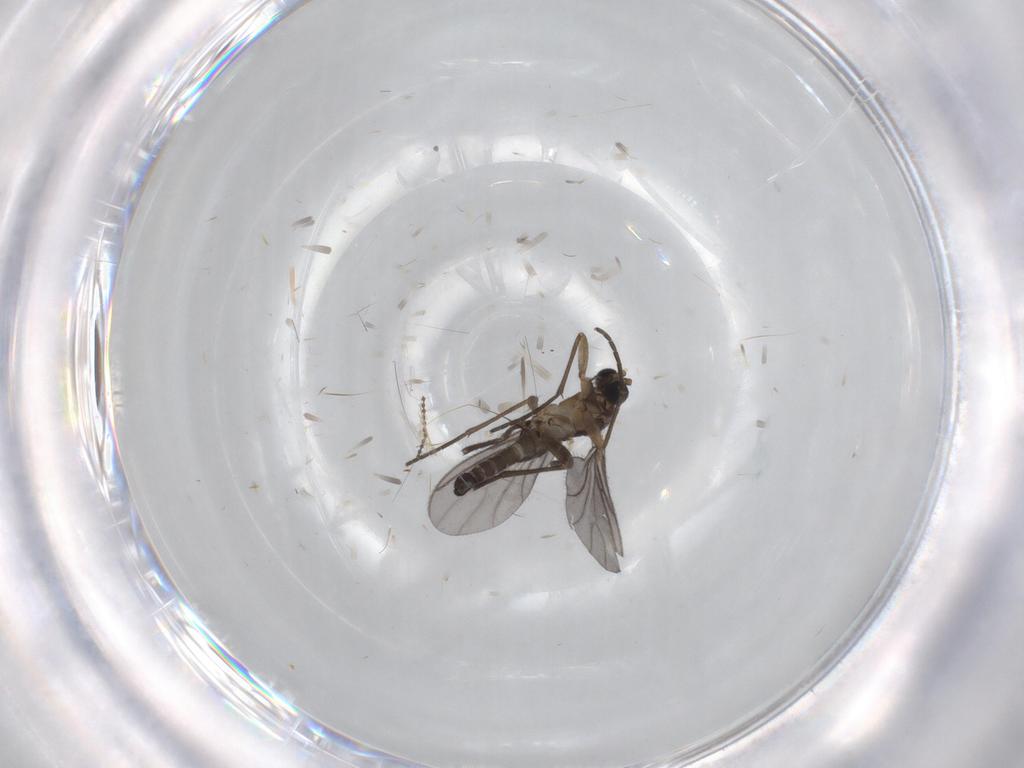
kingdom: Animalia
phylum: Arthropoda
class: Insecta
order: Diptera
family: Cecidomyiidae
